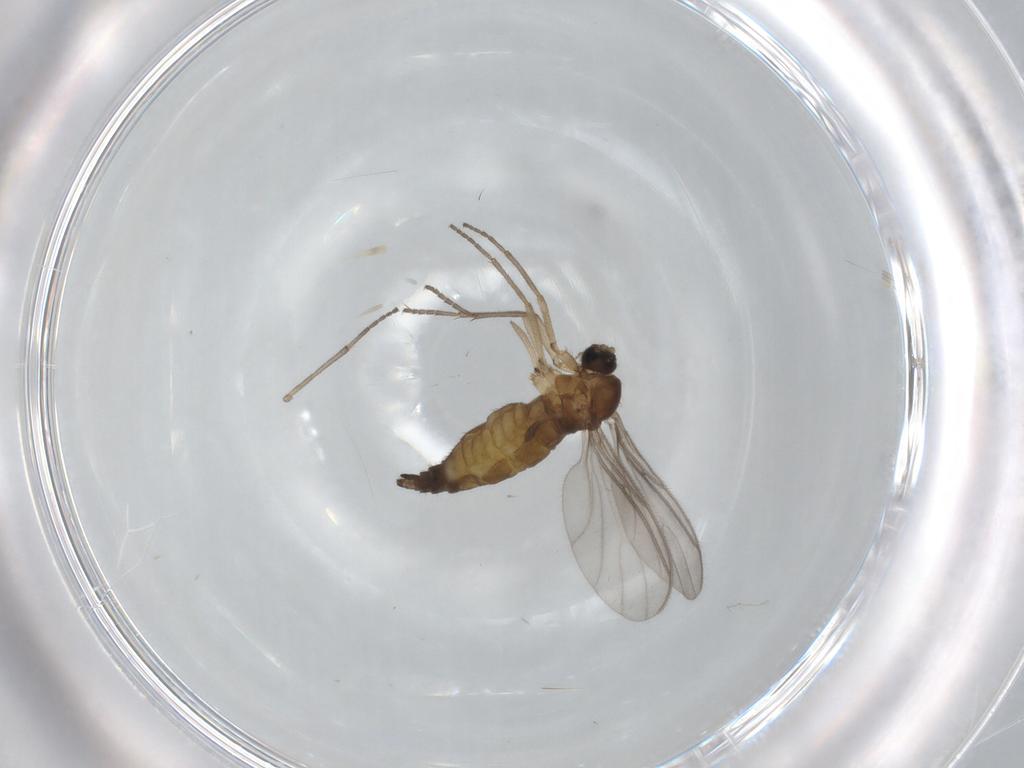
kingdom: Animalia
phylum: Arthropoda
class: Insecta
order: Diptera
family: Sciaridae
